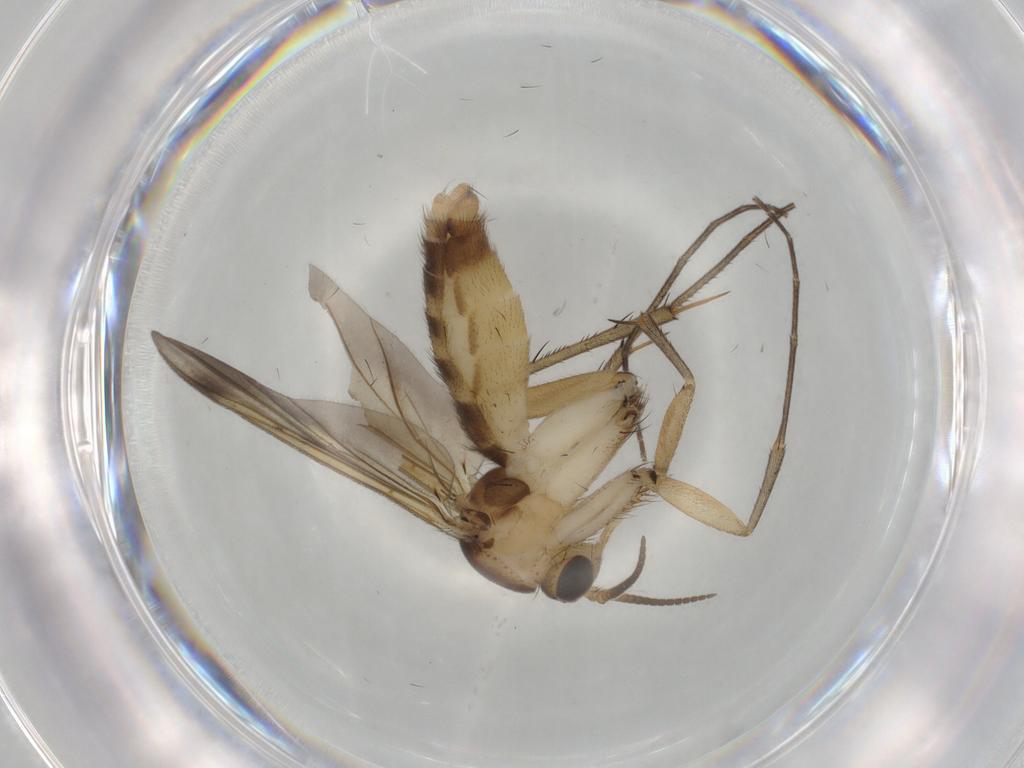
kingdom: Animalia
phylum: Arthropoda
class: Insecta
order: Diptera
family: Mycetophilidae
